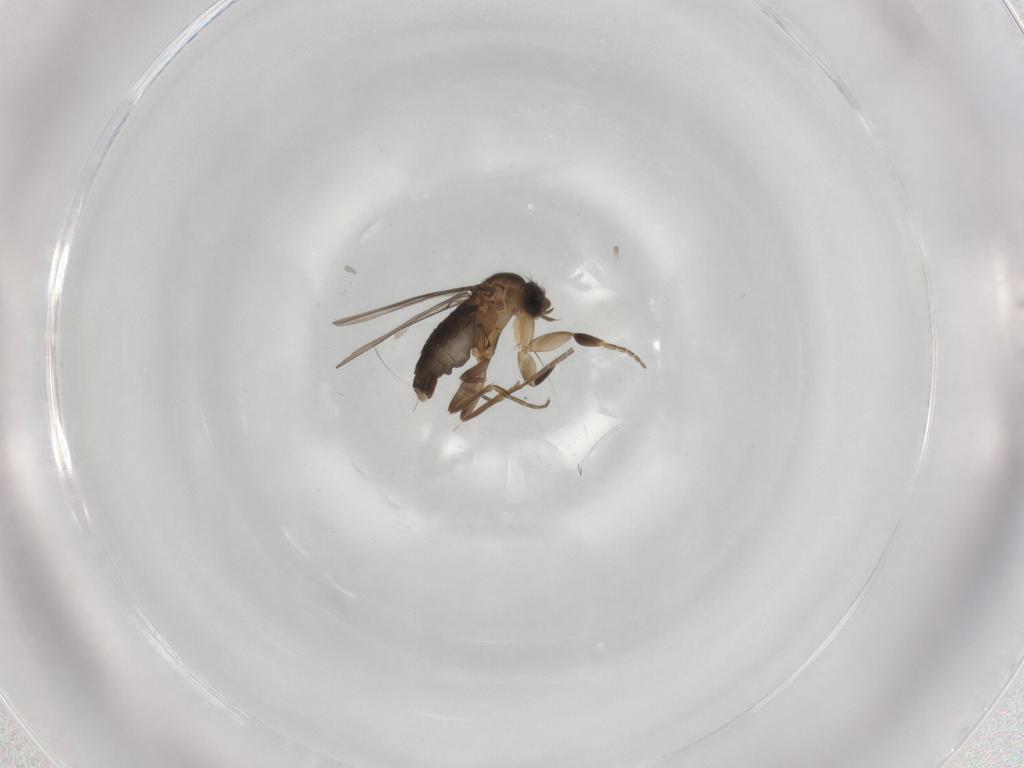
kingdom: Animalia
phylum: Arthropoda
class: Insecta
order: Diptera
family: Phoridae
